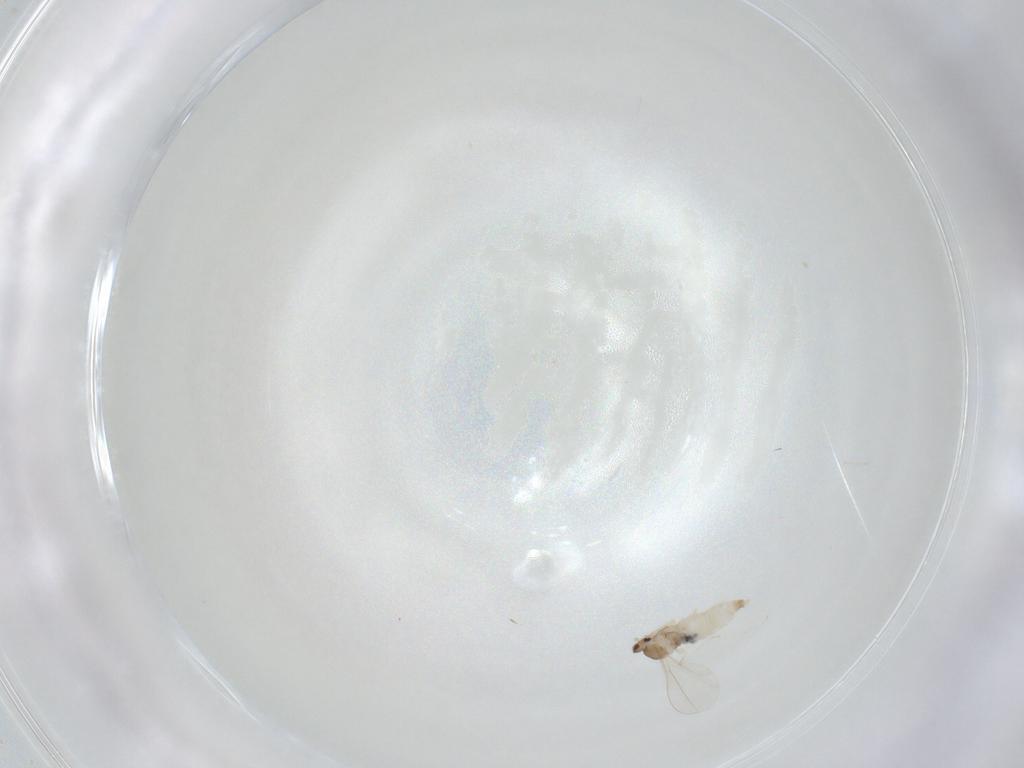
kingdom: Animalia
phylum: Arthropoda
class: Insecta
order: Diptera
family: Cecidomyiidae
